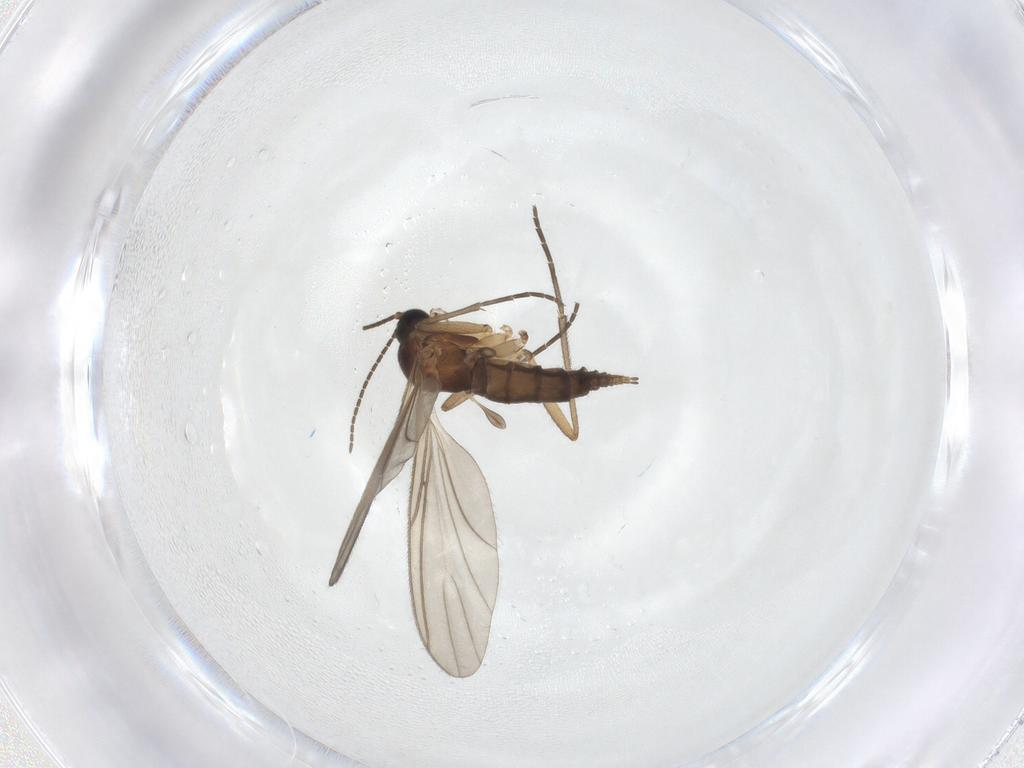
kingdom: Animalia
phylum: Arthropoda
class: Insecta
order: Diptera
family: Sciaridae
